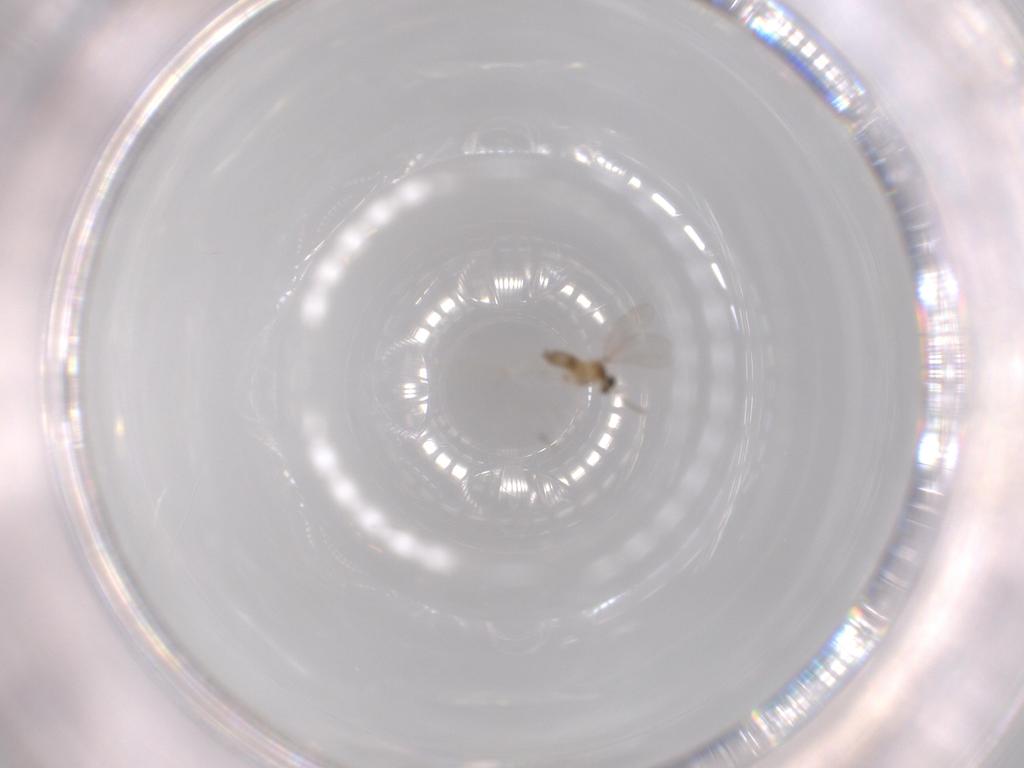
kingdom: Animalia
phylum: Arthropoda
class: Insecta
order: Diptera
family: Cecidomyiidae
